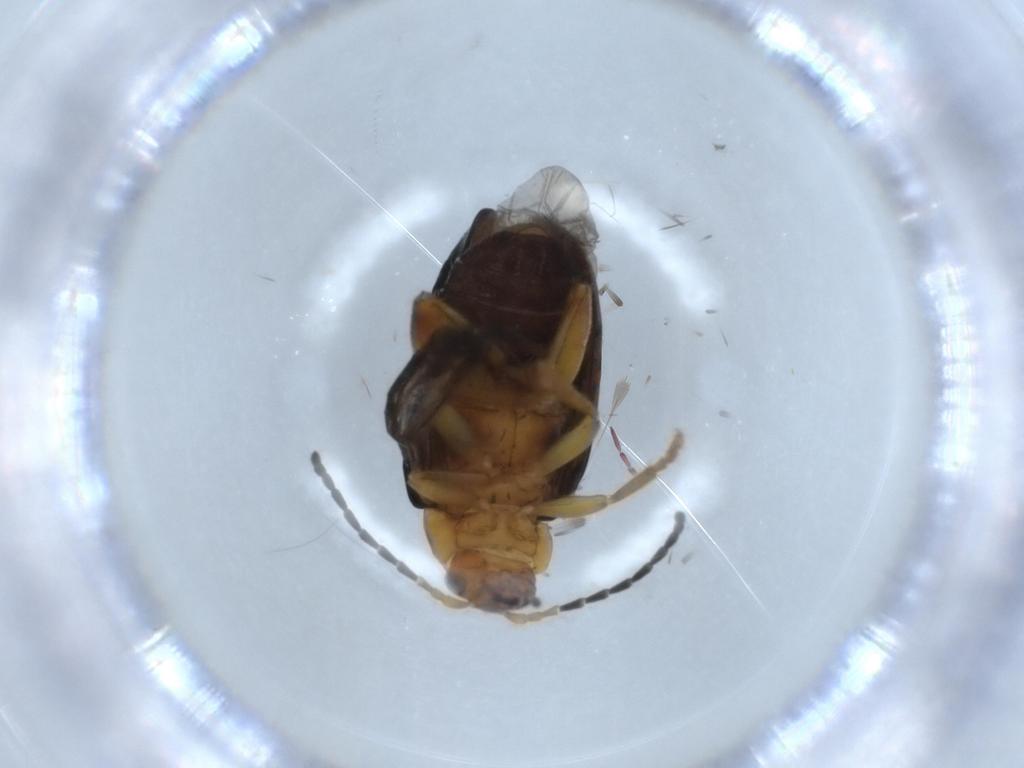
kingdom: Animalia
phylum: Arthropoda
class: Insecta
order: Coleoptera
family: Chrysomelidae
